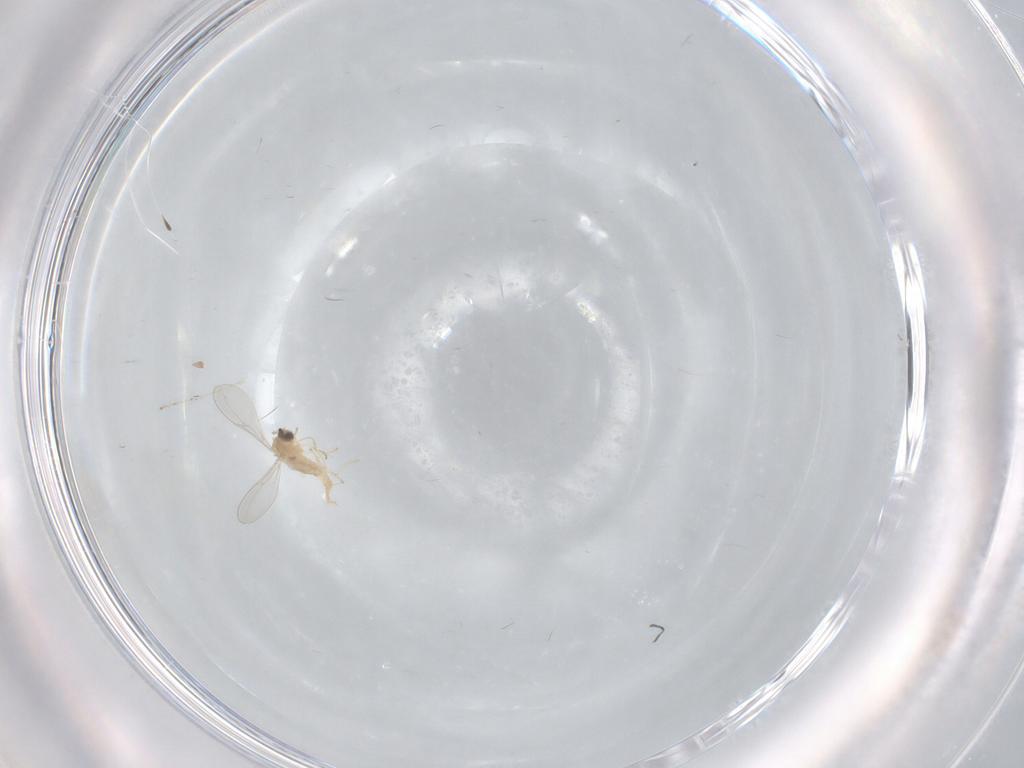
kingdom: Animalia
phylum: Arthropoda
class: Insecta
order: Diptera
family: Cecidomyiidae
